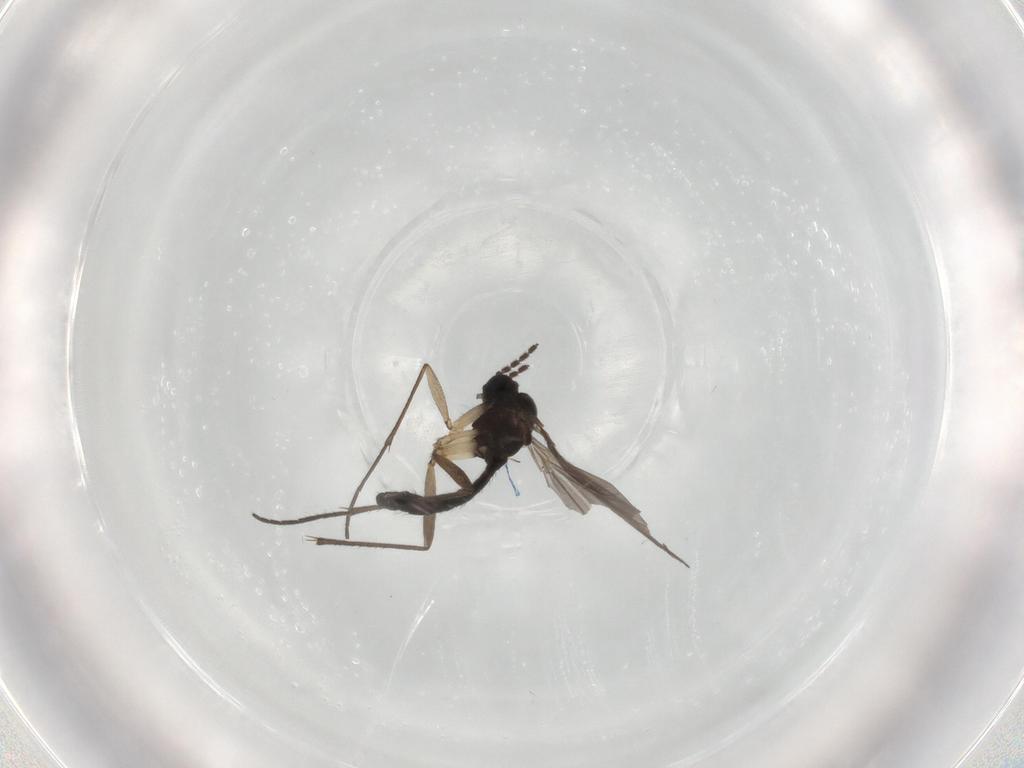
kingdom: Animalia
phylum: Arthropoda
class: Insecta
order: Diptera
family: Sciaridae
